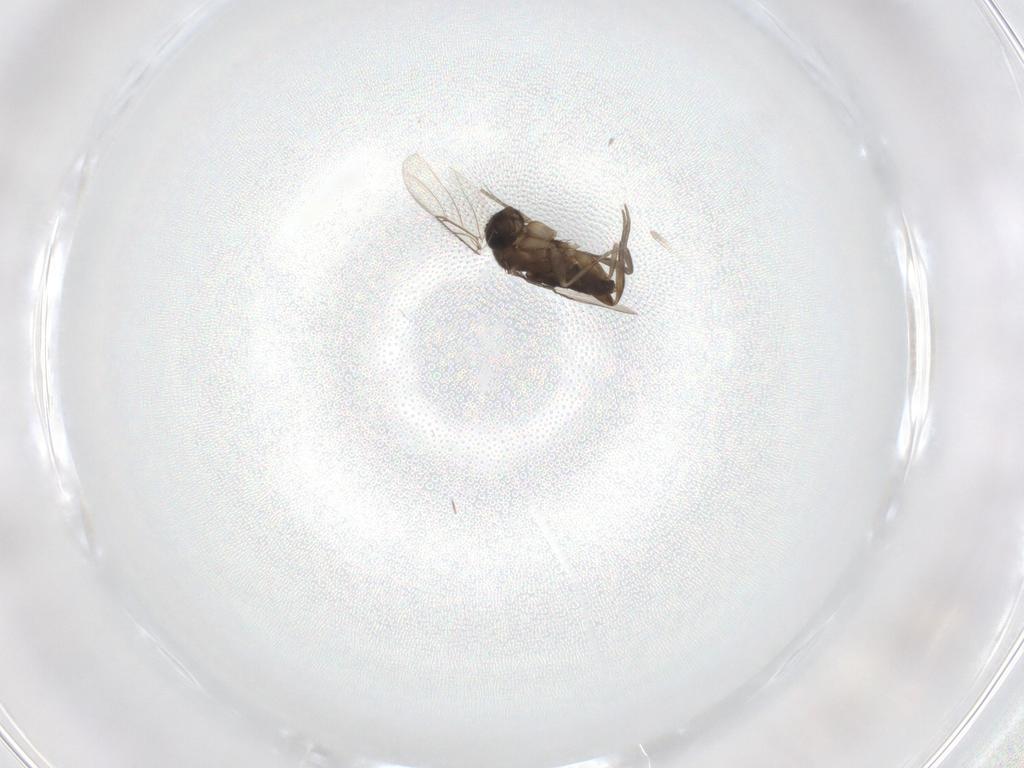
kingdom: Animalia
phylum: Arthropoda
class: Insecta
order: Diptera
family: Phoridae
